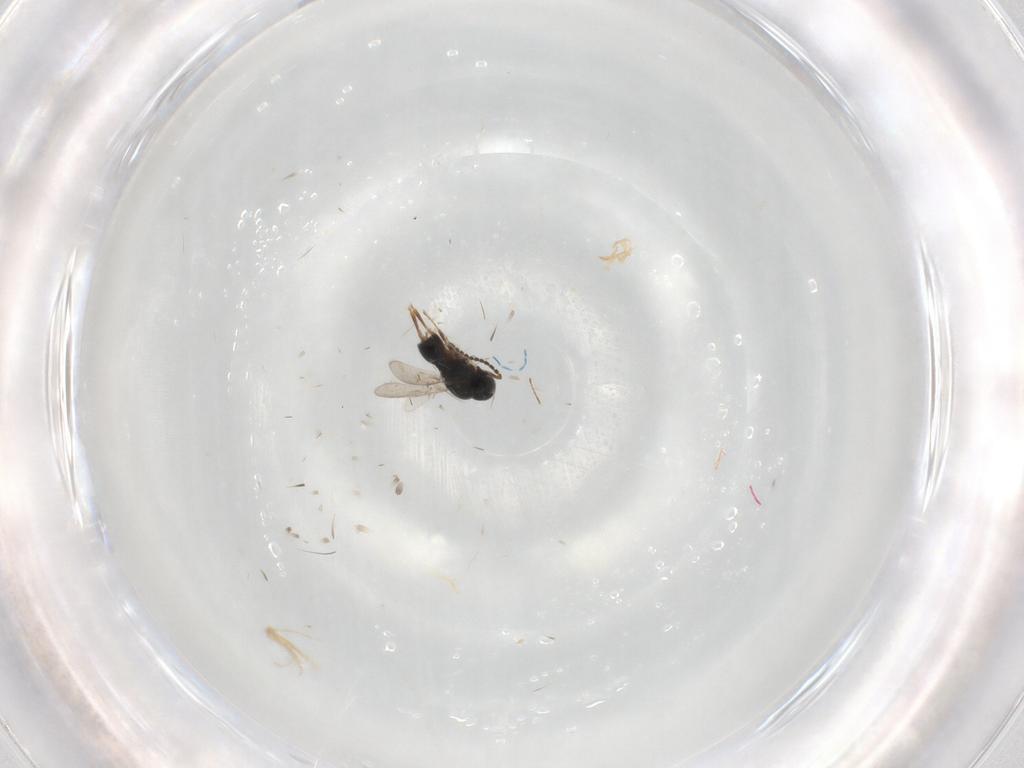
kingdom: Animalia
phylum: Arthropoda
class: Insecta
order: Hymenoptera
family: Scelionidae
